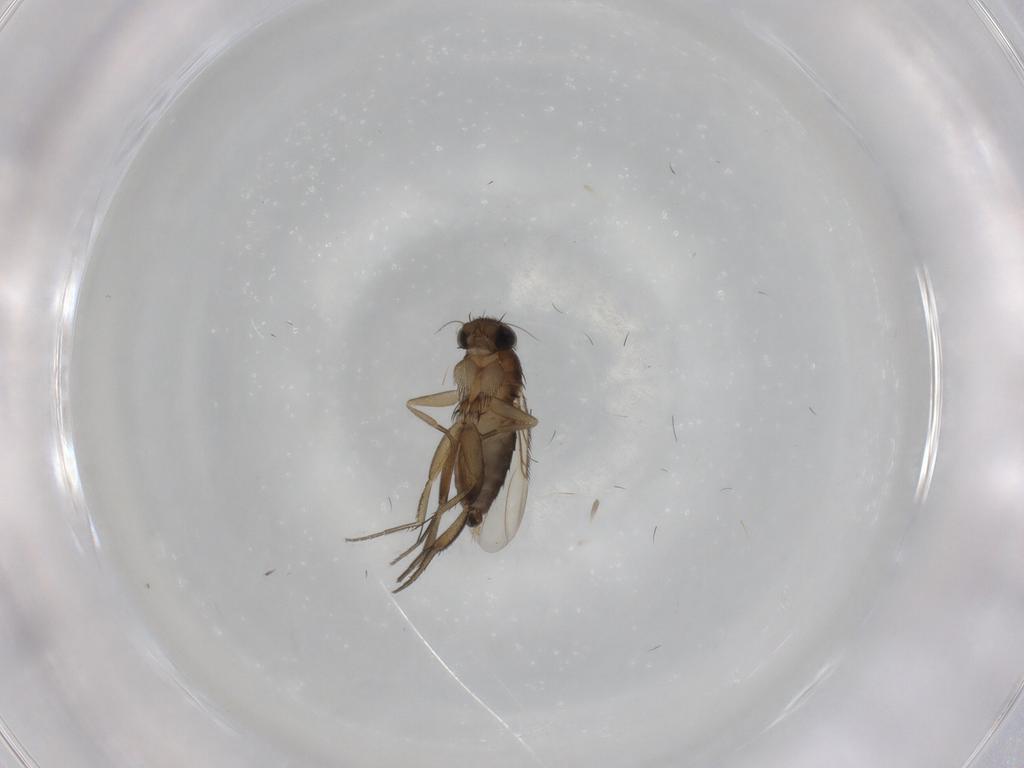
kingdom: Animalia
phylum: Arthropoda
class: Insecta
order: Diptera
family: Phoridae
